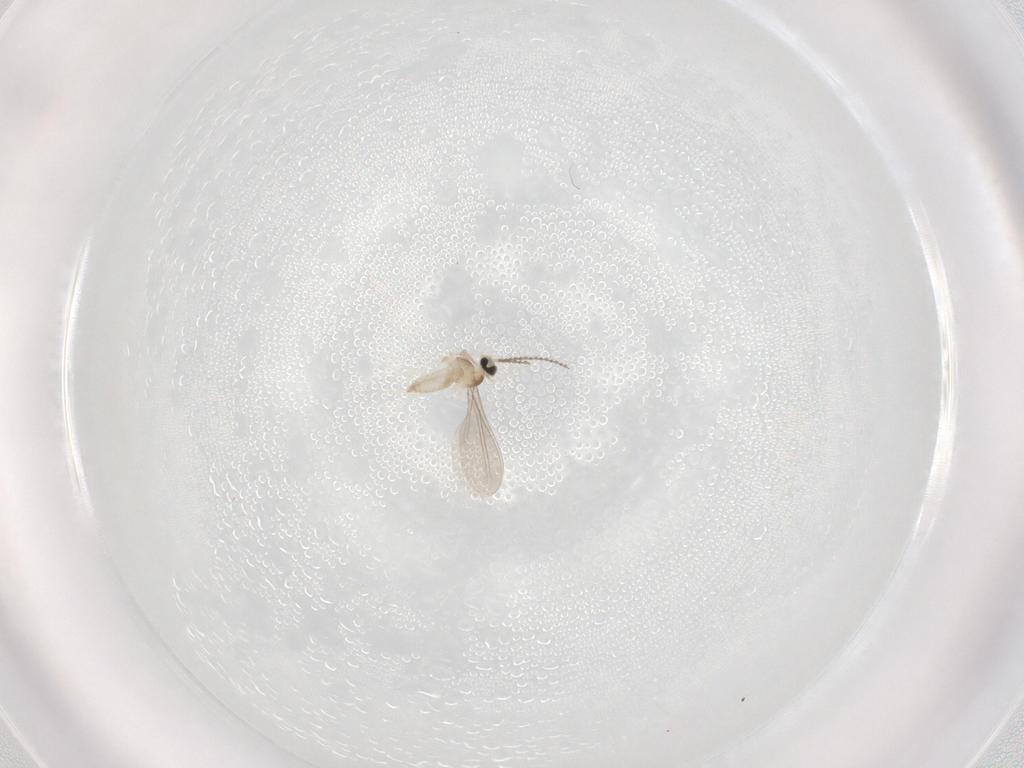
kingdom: Animalia
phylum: Arthropoda
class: Insecta
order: Diptera
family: Cecidomyiidae
